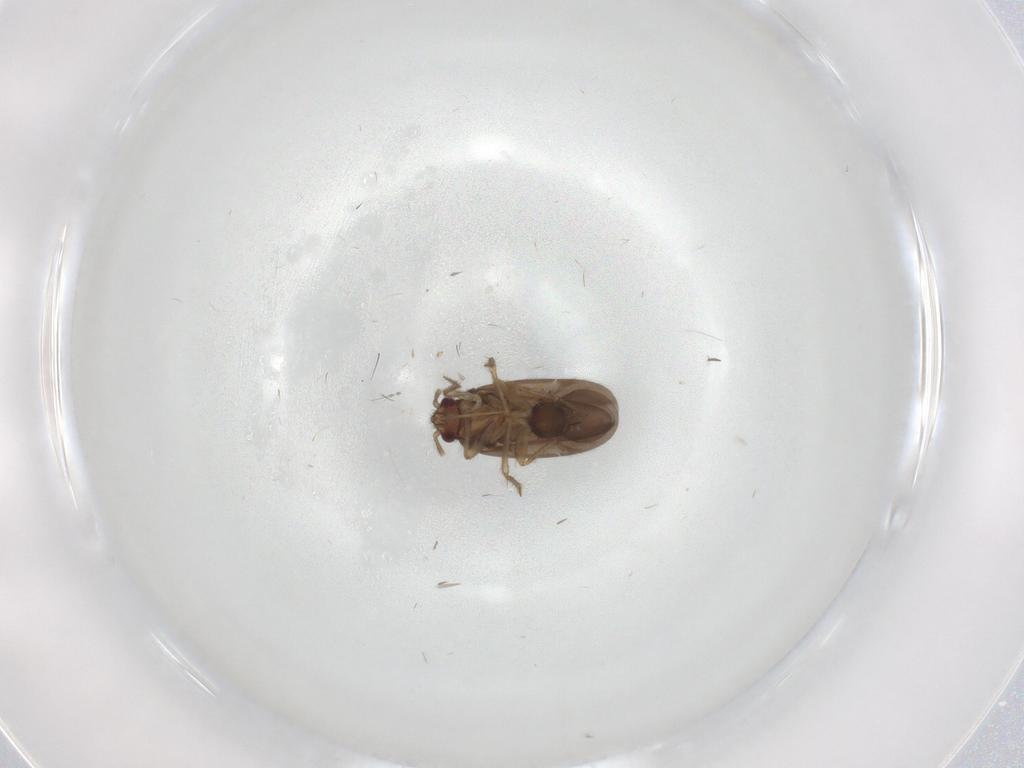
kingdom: Animalia
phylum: Arthropoda
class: Insecta
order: Hemiptera
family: Ceratocombidae
